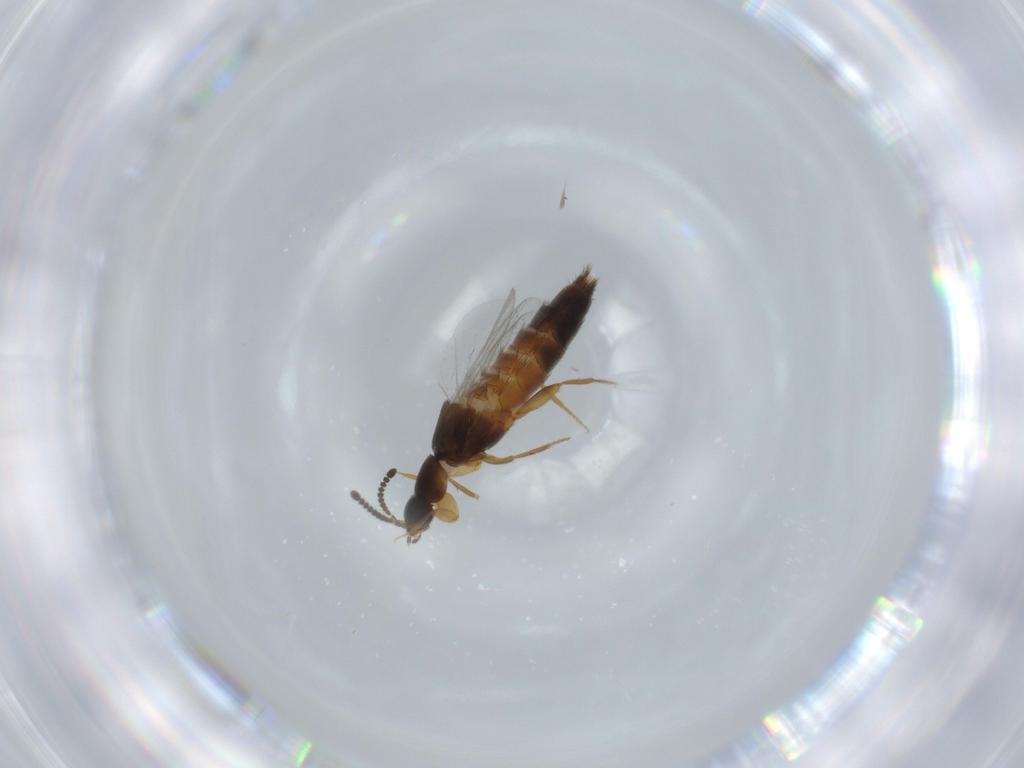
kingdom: Animalia
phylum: Arthropoda
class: Insecta
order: Coleoptera
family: Staphylinidae
